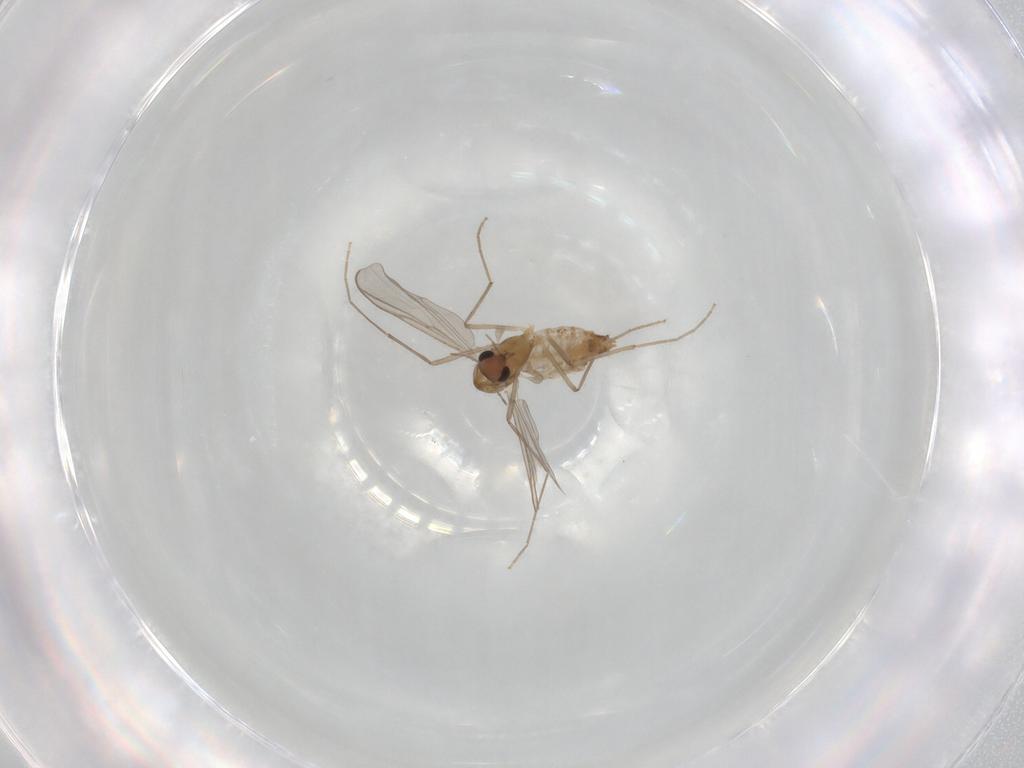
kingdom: Animalia
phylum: Arthropoda
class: Insecta
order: Diptera
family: Chironomidae
